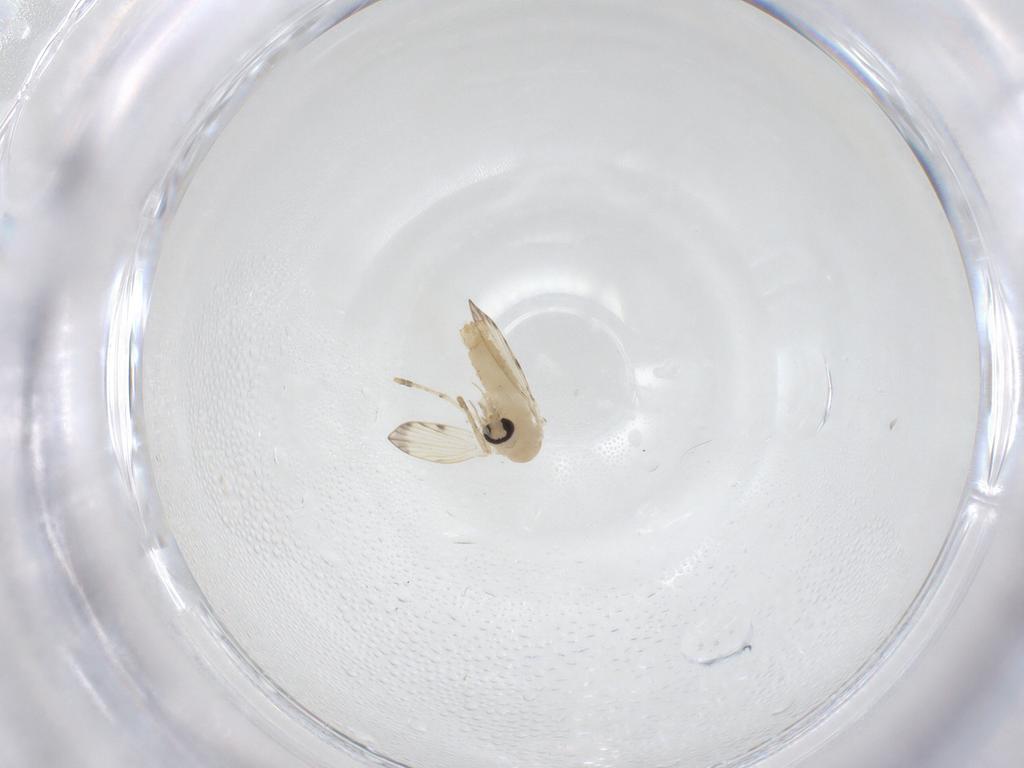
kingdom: Animalia
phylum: Arthropoda
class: Insecta
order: Diptera
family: Psychodidae
